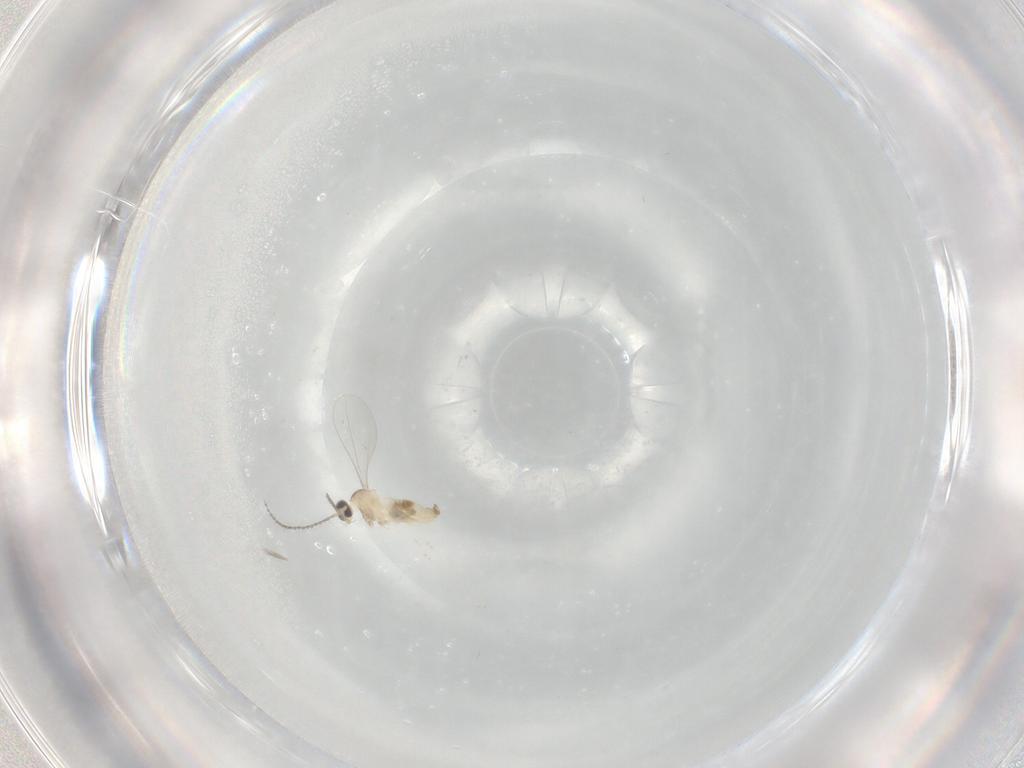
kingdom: Animalia
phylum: Arthropoda
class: Insecta
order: Diptera
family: Cecidomyiidae
